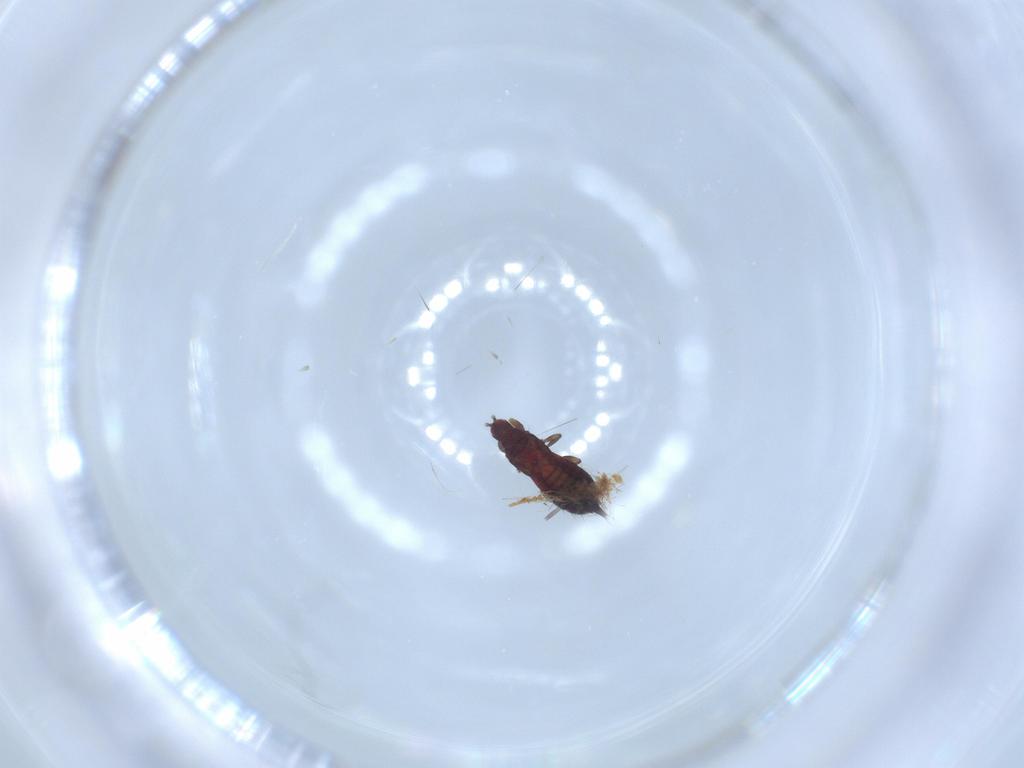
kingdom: Animalia
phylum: Arthropoda
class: Insecta
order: Thysanoptera
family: Phlaeothripidae
